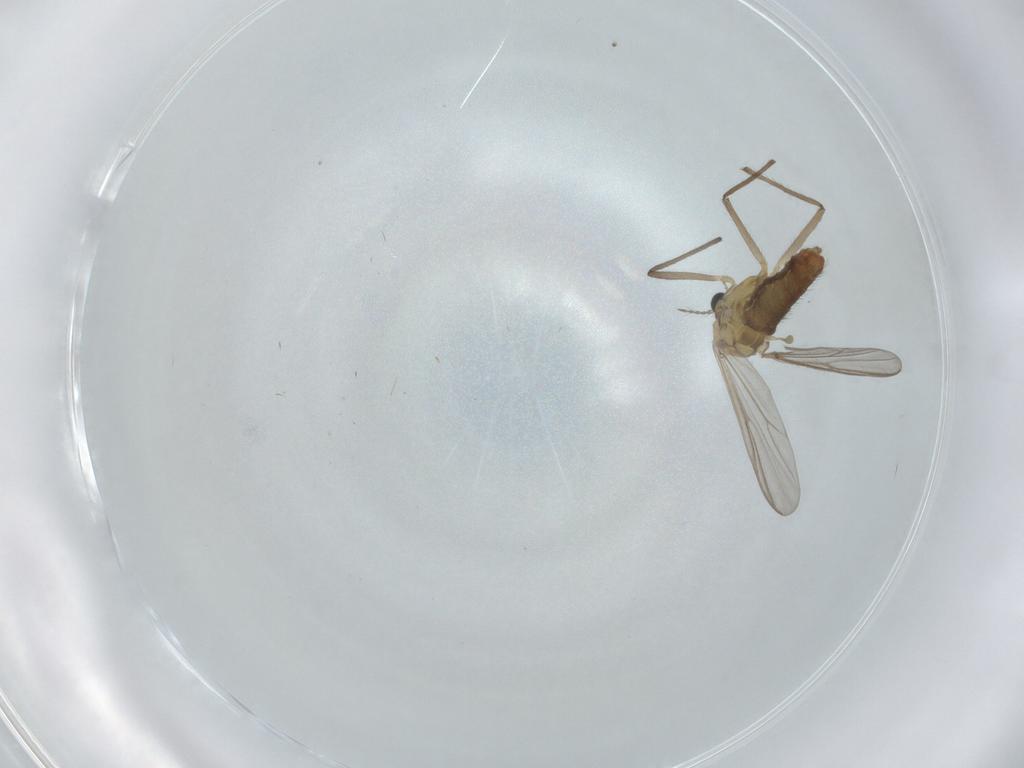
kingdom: Animalia
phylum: Arthropoda
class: Insecta
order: Diptera
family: Chironomidae
